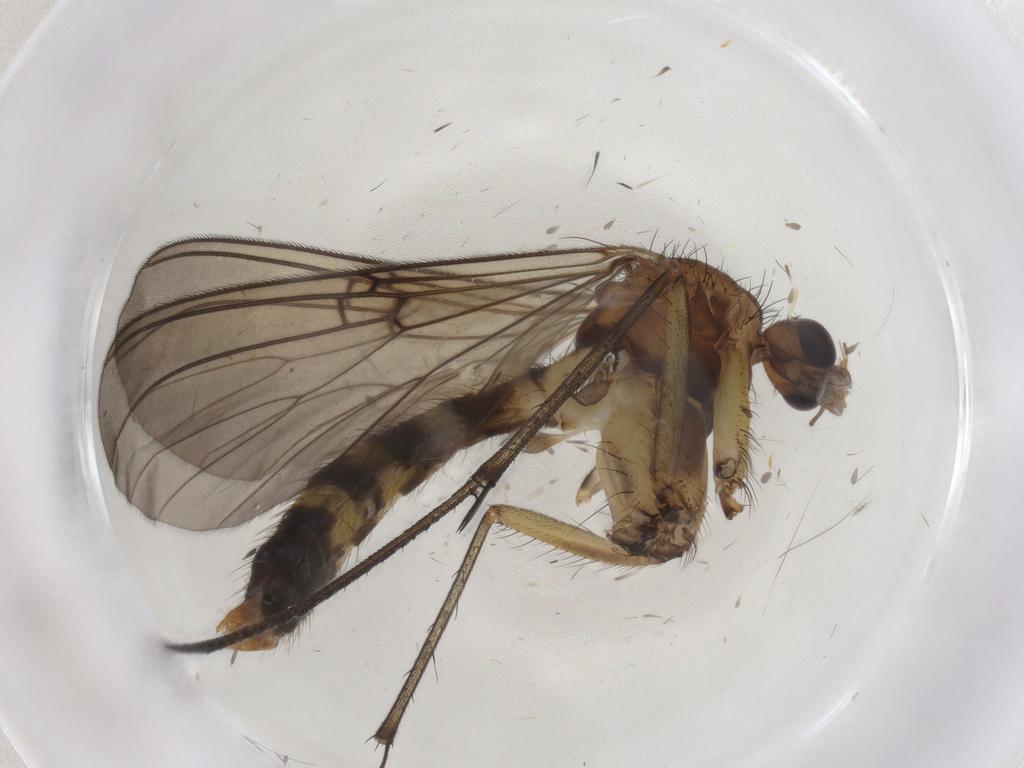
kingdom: Animalia
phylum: Arthropoda
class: Insecta
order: Diptera
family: Mycetophilidae
